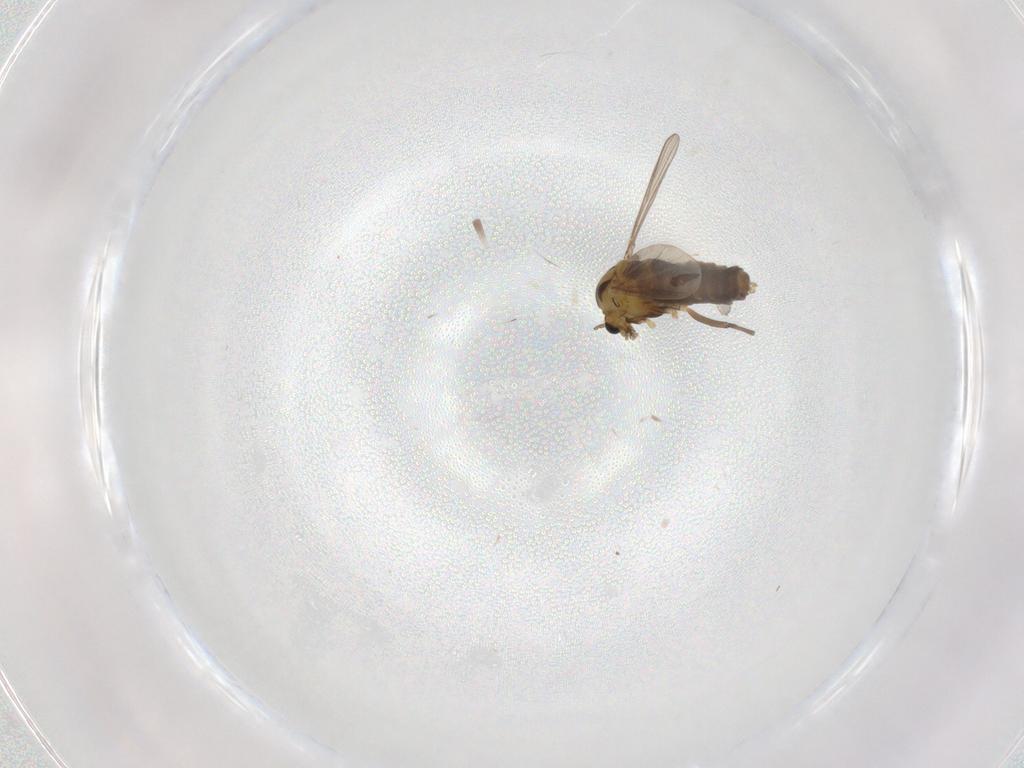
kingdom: Animalia
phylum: Arthropoda
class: Insecta
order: Diptera
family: Chironomidae
